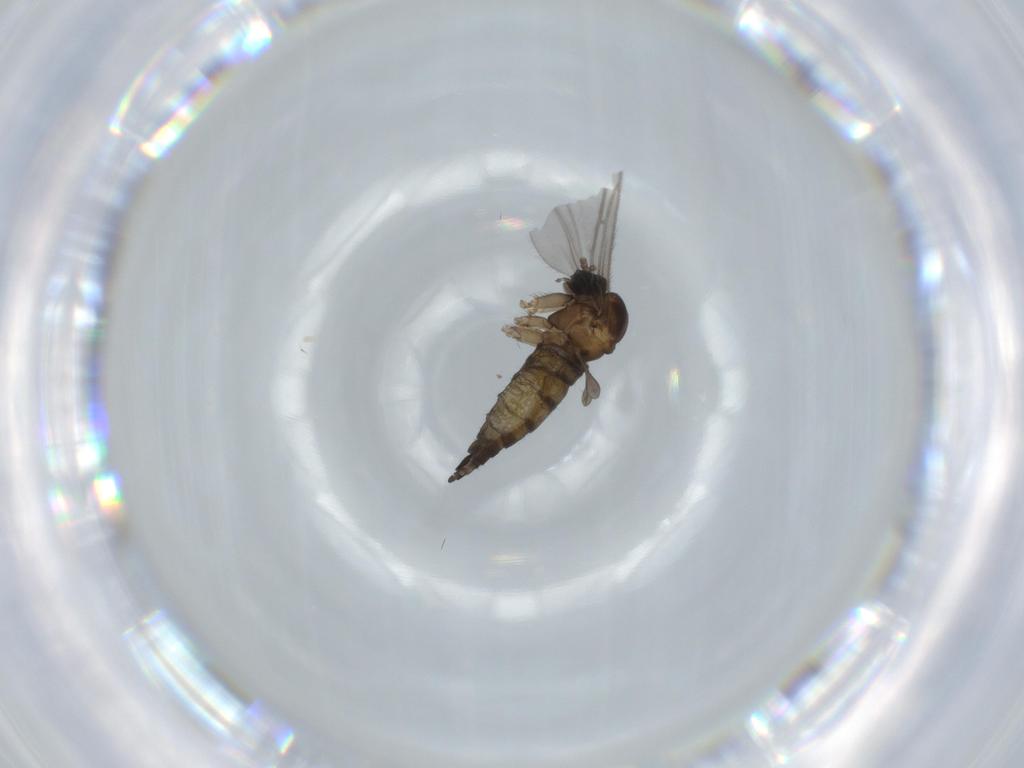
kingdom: Animalia
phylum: Arthropoda
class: Insecta
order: Diptera
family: Sciaridae
